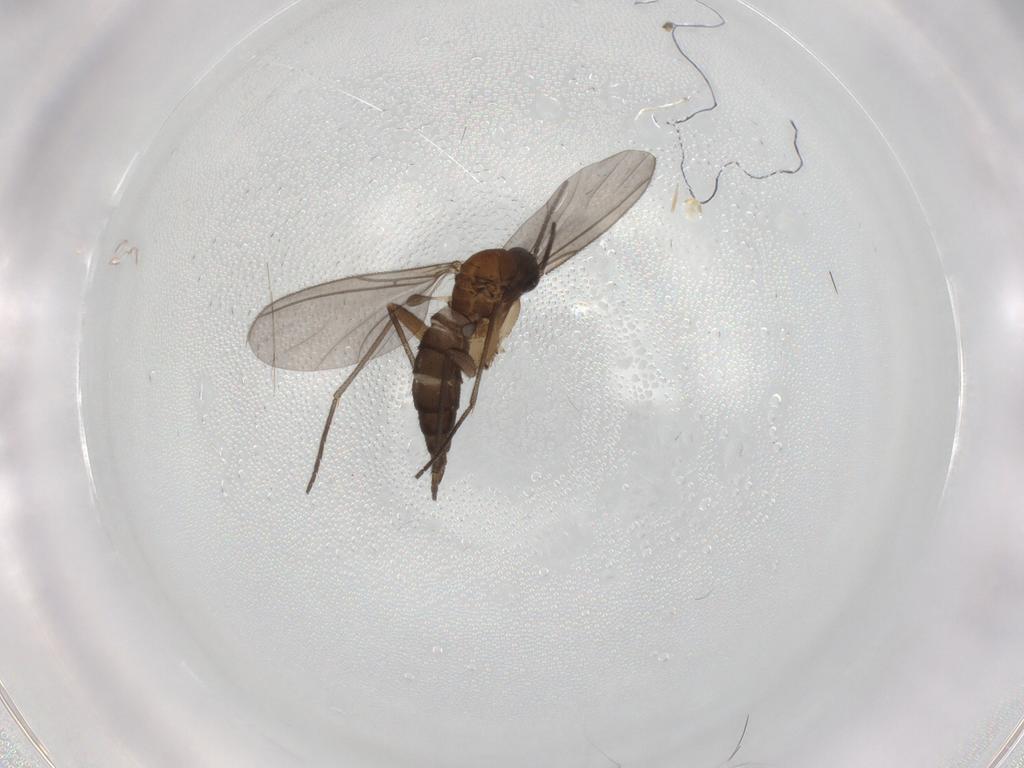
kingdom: Animalia
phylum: Arthropoda
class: Insecta
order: Diptera
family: Sciaridae
